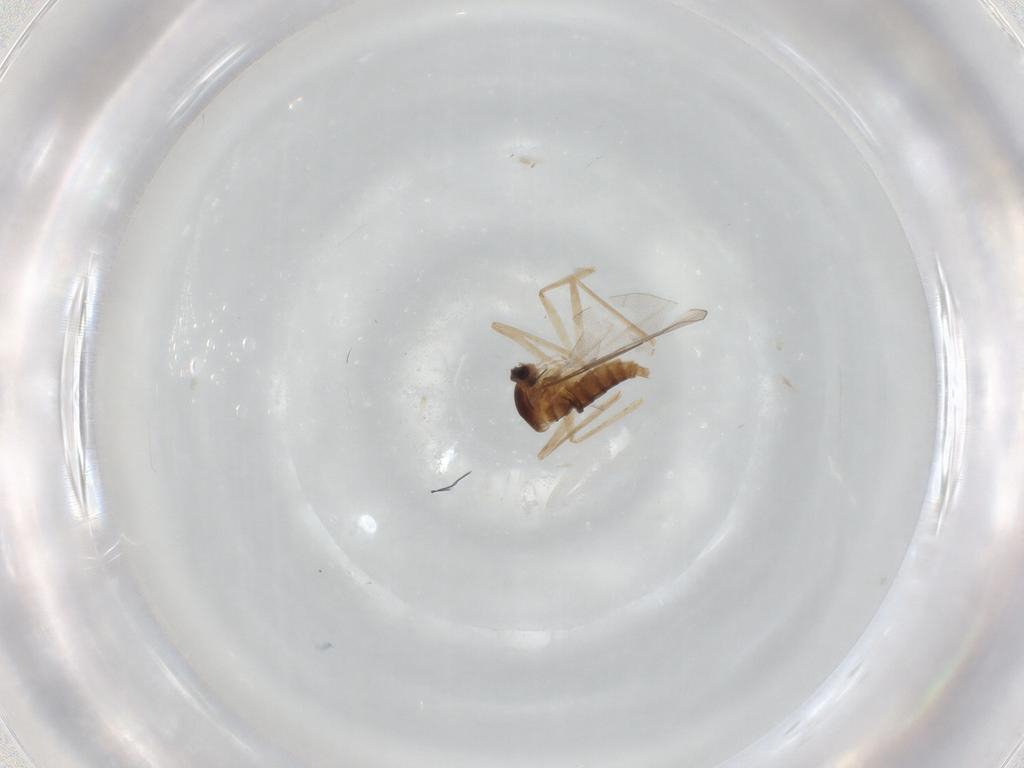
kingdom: Animalia
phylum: Arthropoda
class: Insecta
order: Diptera
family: Cecidomyiidae
